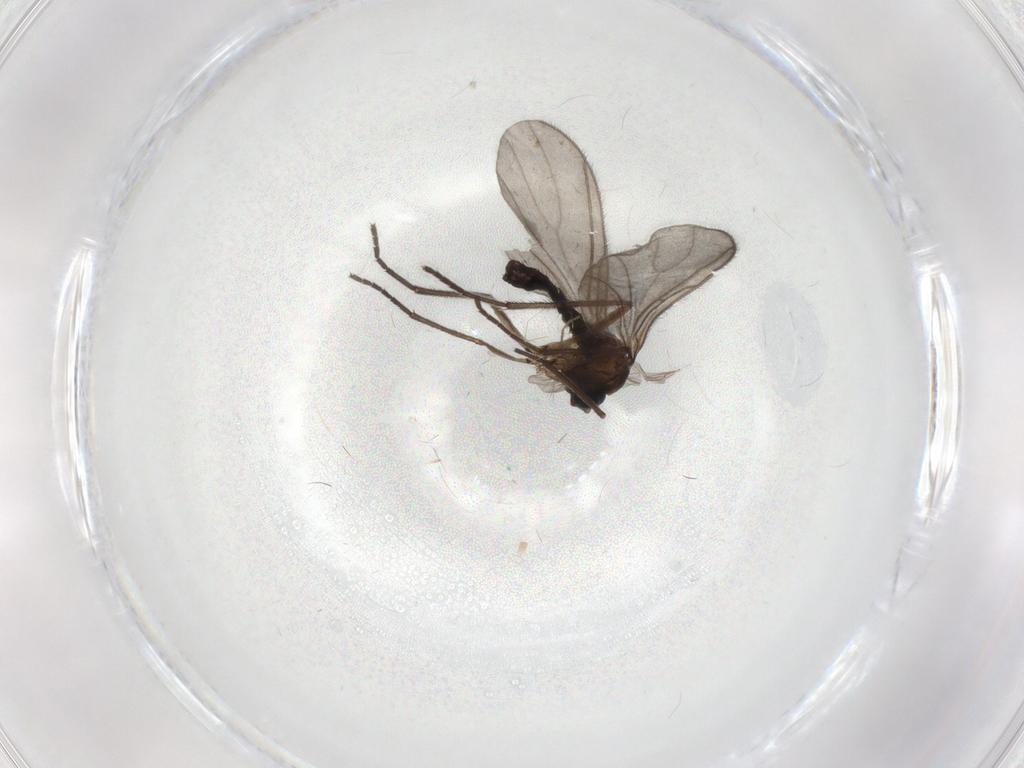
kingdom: Animalia
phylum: Arthropoda
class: Insecta
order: Diptera
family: Sciaridae
